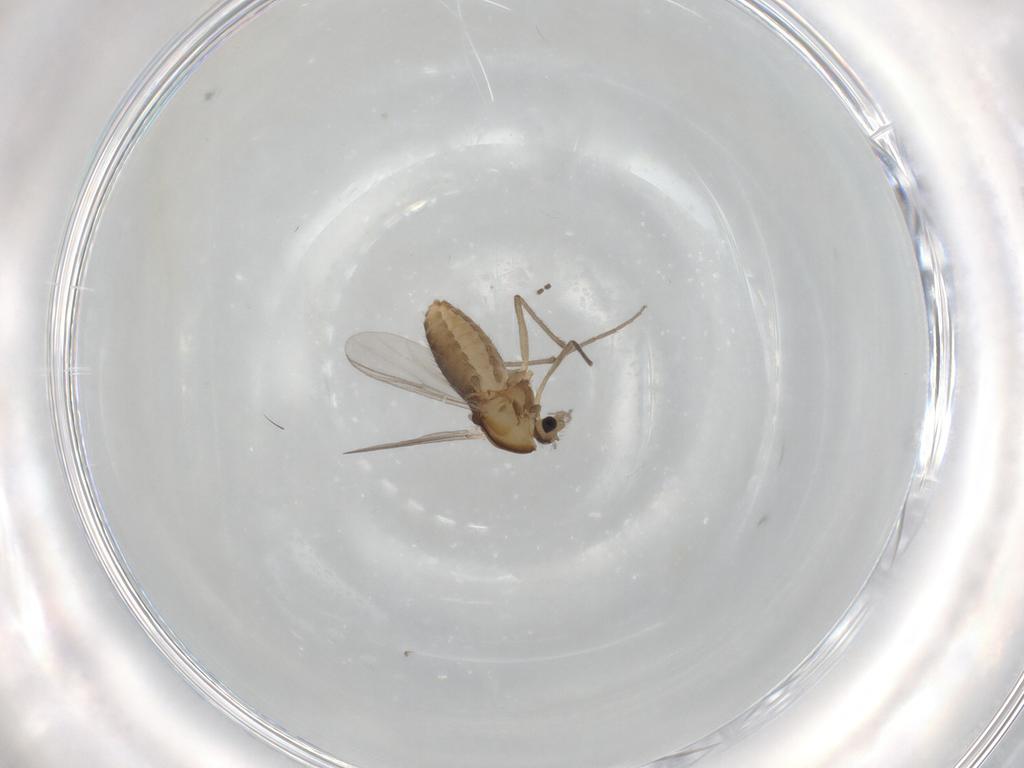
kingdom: Animalia
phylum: Arthropoda
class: Insecta
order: Diptera
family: Chironomidae
